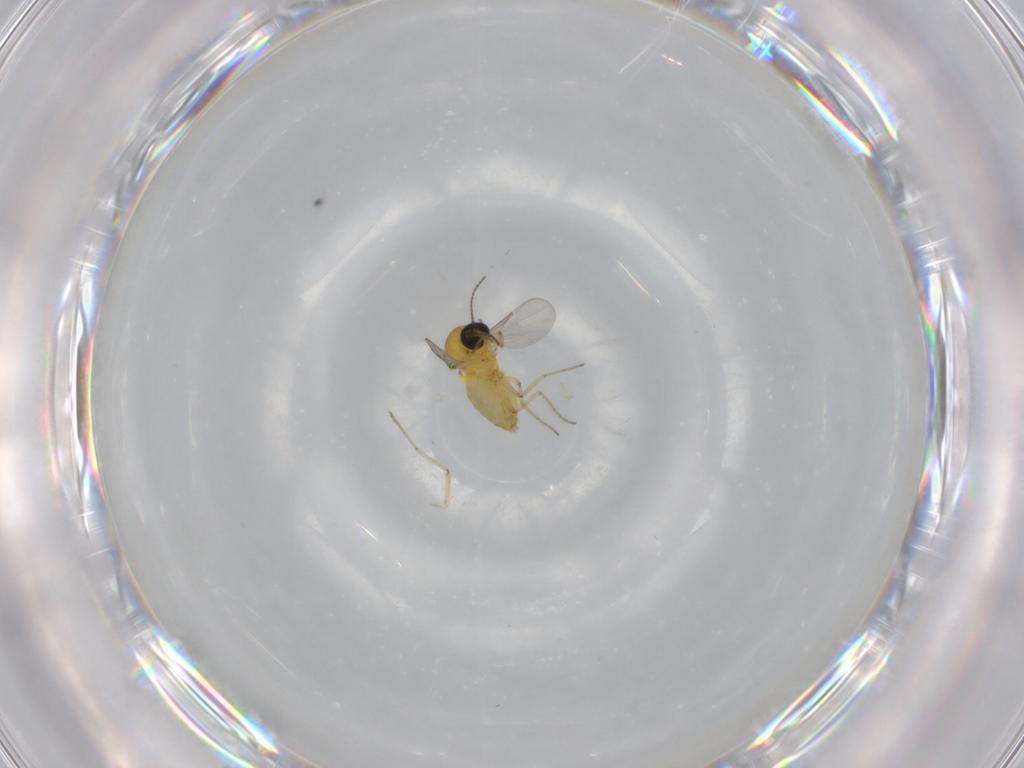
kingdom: Animalia
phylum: Arthropoda
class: Insecta
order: Diptera
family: Ceratopogonidae
